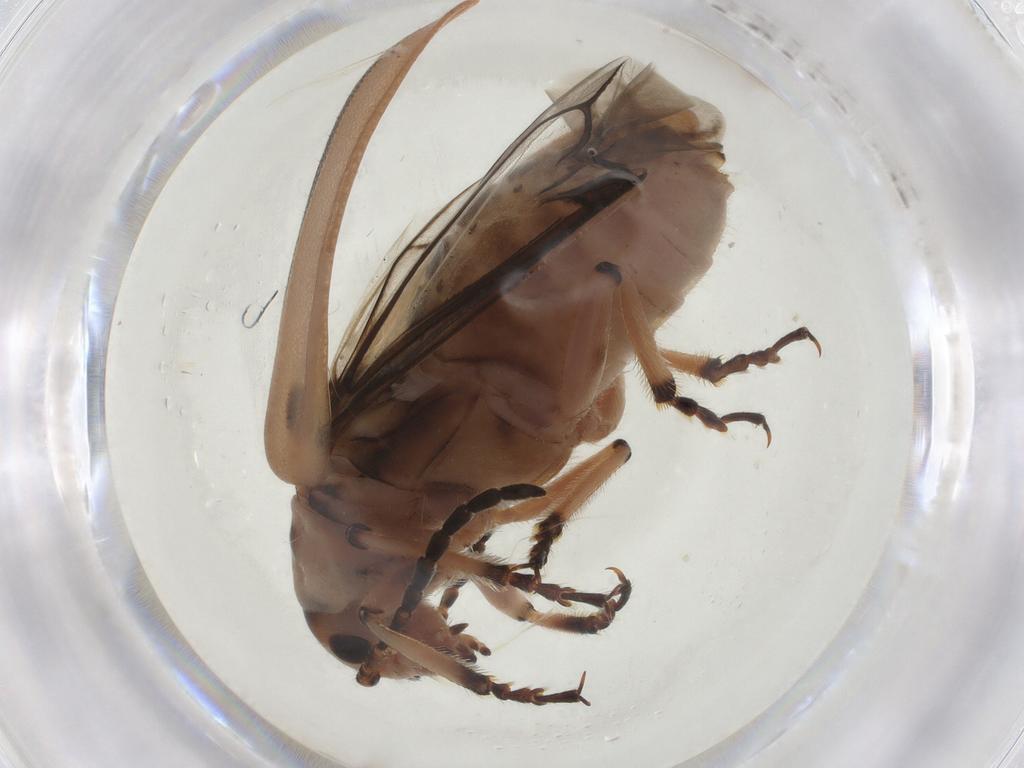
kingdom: Animalia
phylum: Arthropoda
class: Insecta
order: Coleoptera
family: Chrysomelidae
